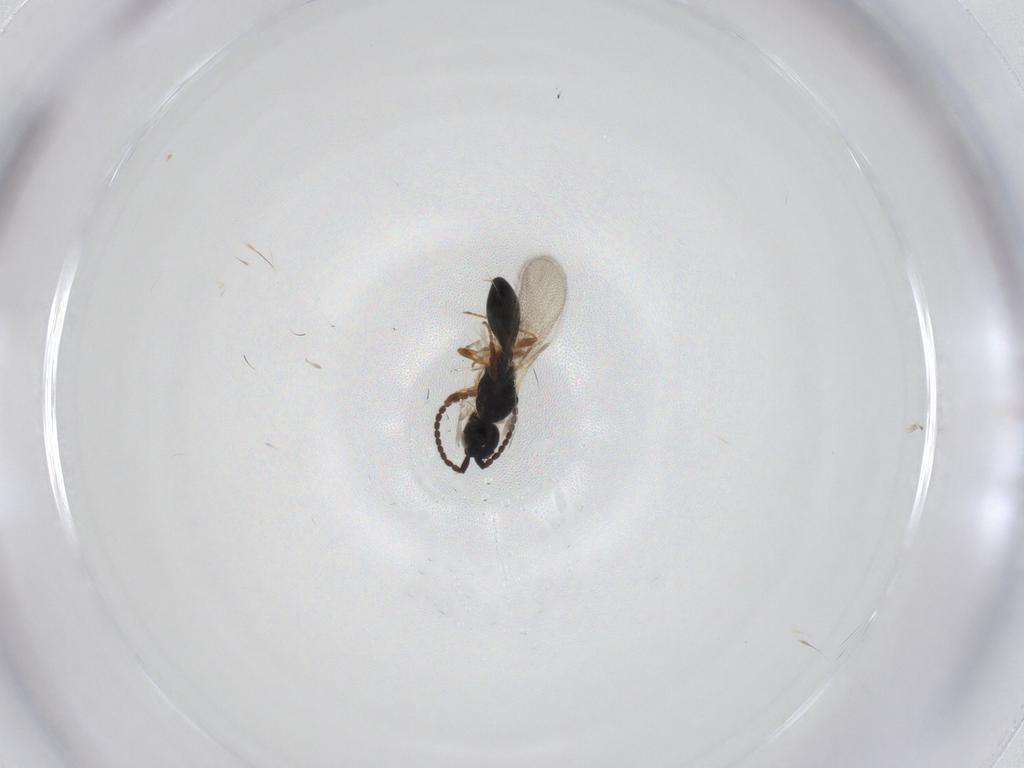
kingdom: Animalia
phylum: Arthropoda
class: Insecta
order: Hymenoptera
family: Diapriidae
